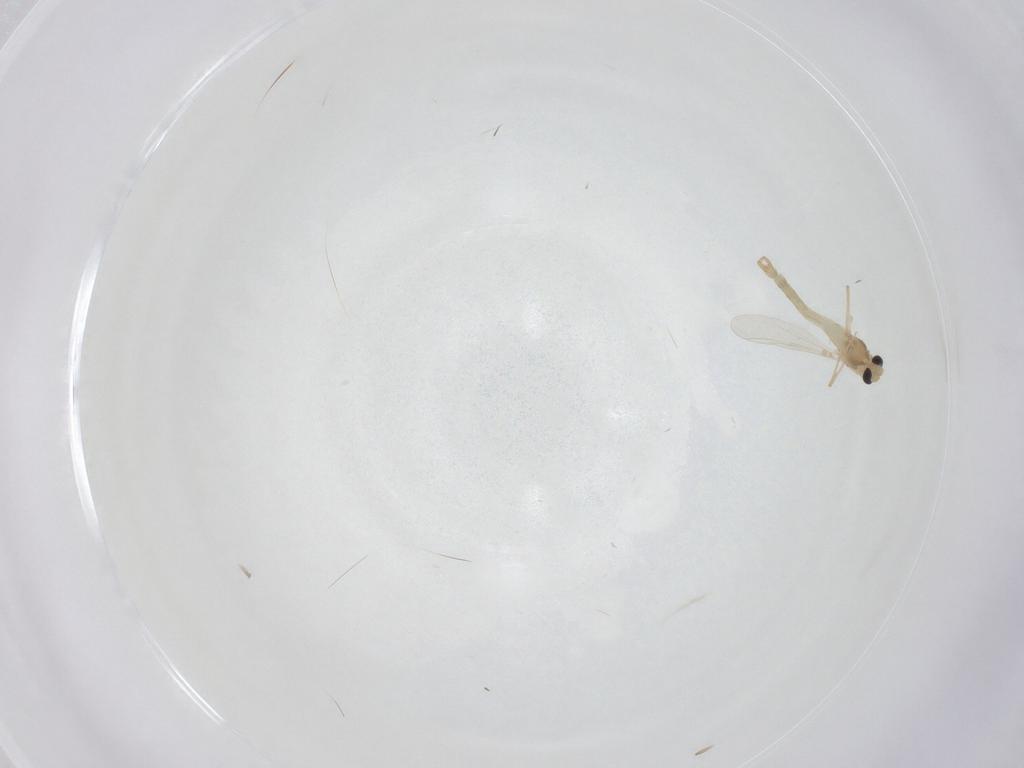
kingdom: Animalia
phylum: Arthropoda
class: Insecta
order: Diptera
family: Chironomidae
